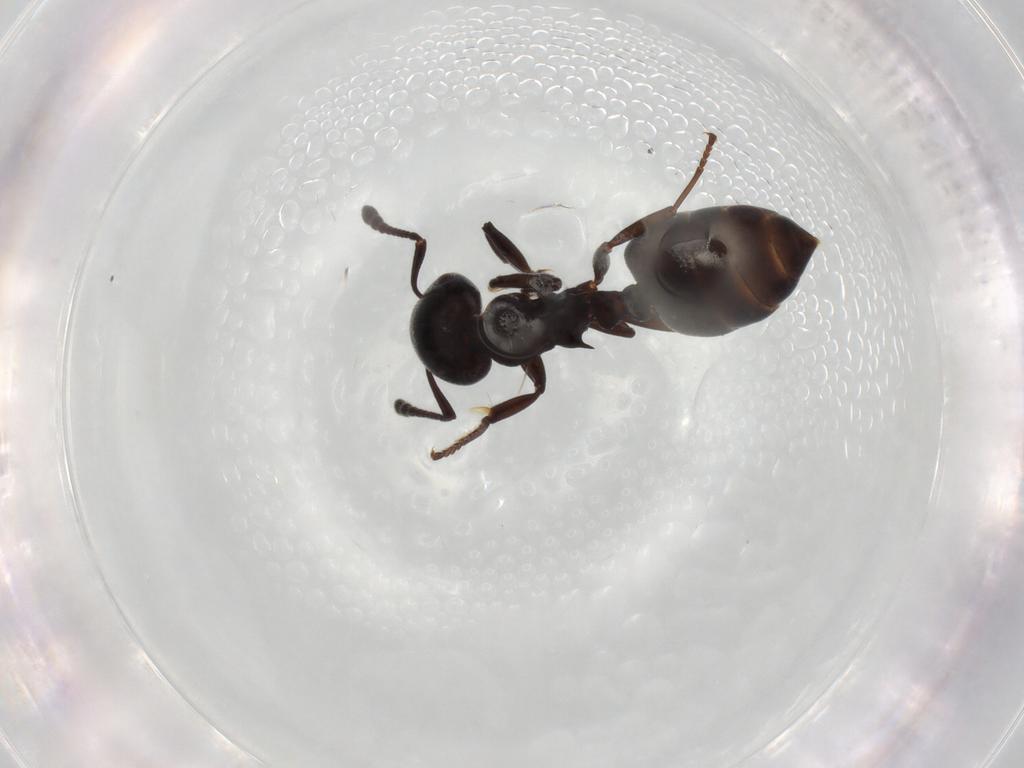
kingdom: Animalia
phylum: Arthropoda
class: Insecta
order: Hymenoptera
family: Formicidae
